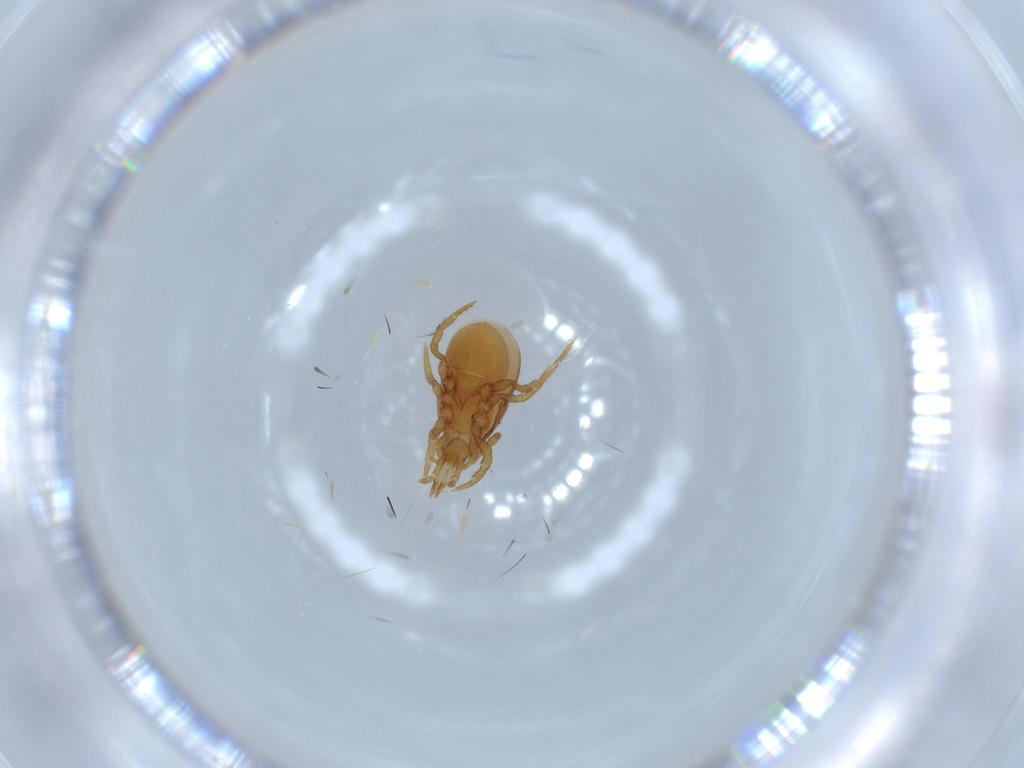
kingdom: Animalia
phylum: Arthropoda
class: Arachnida
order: Mesostigmata
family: Parasitidae
